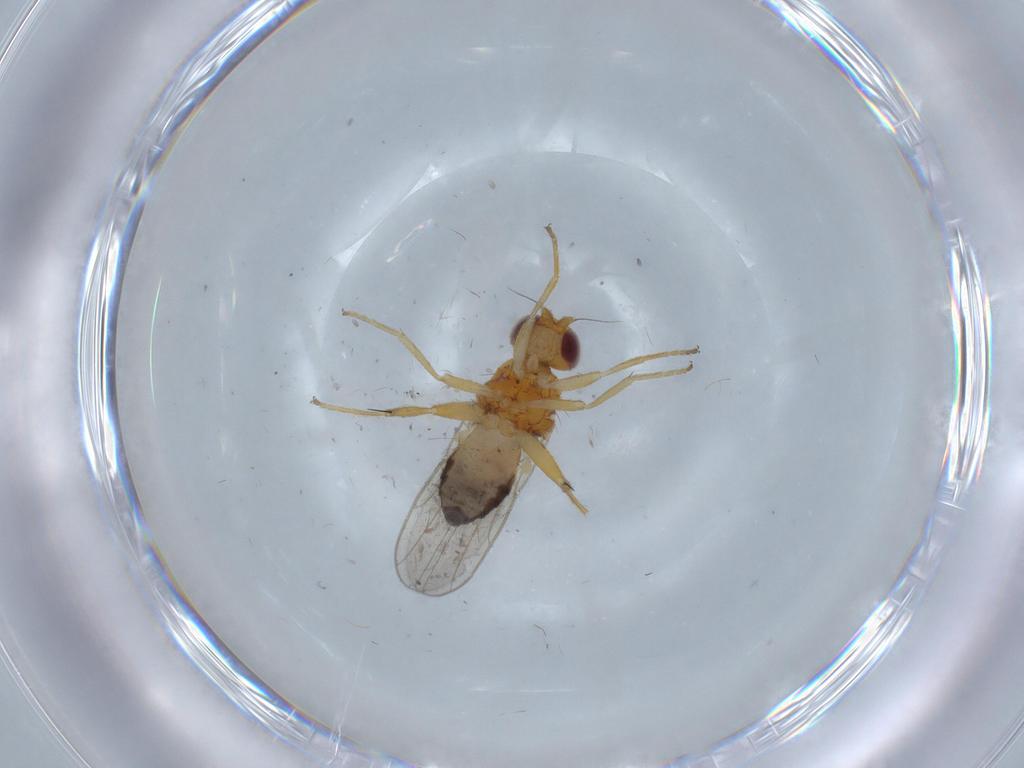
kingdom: Animalia
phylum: Arthropoda
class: Insecta
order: Diptera
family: Chloropidae
